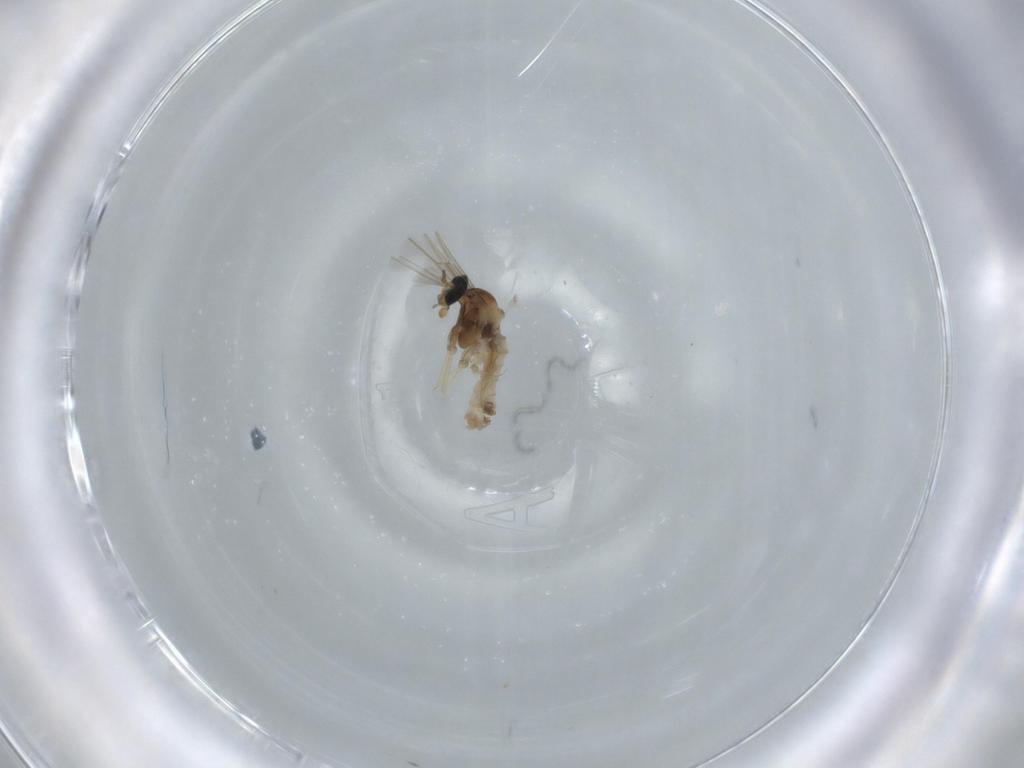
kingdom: Animalia
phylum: Arthropoda
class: Insecta
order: Diptera
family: Cecidomyiidae
